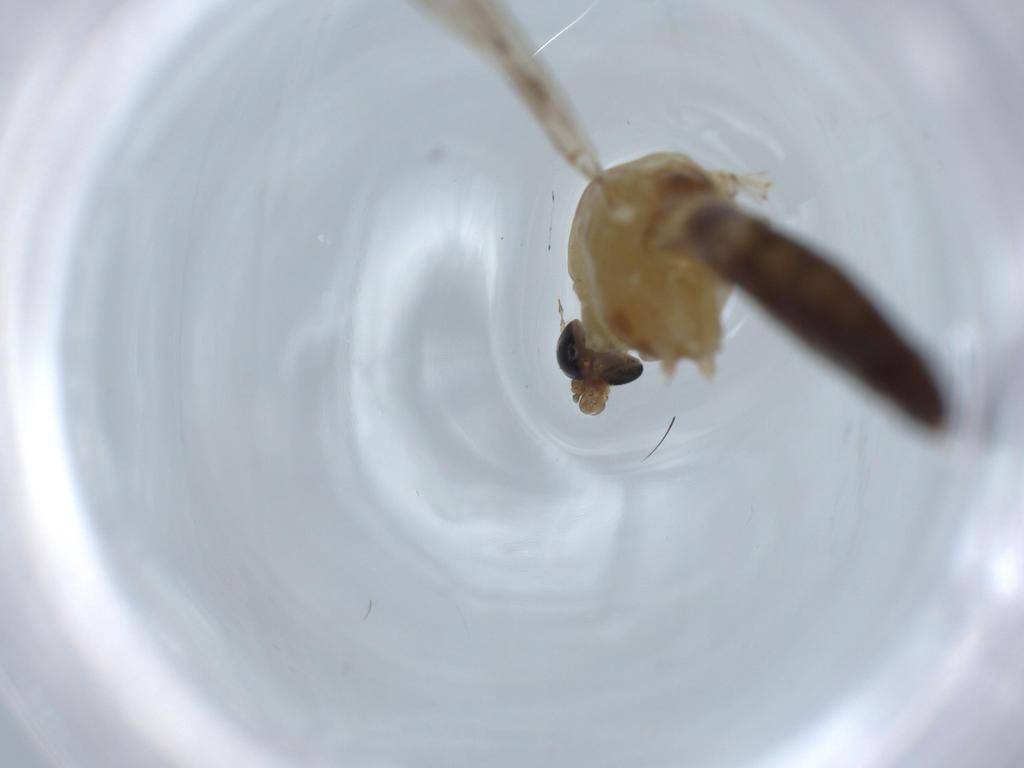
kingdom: Animalia
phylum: Arthropoda
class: Insecta
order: Diptera
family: Chironomidae
